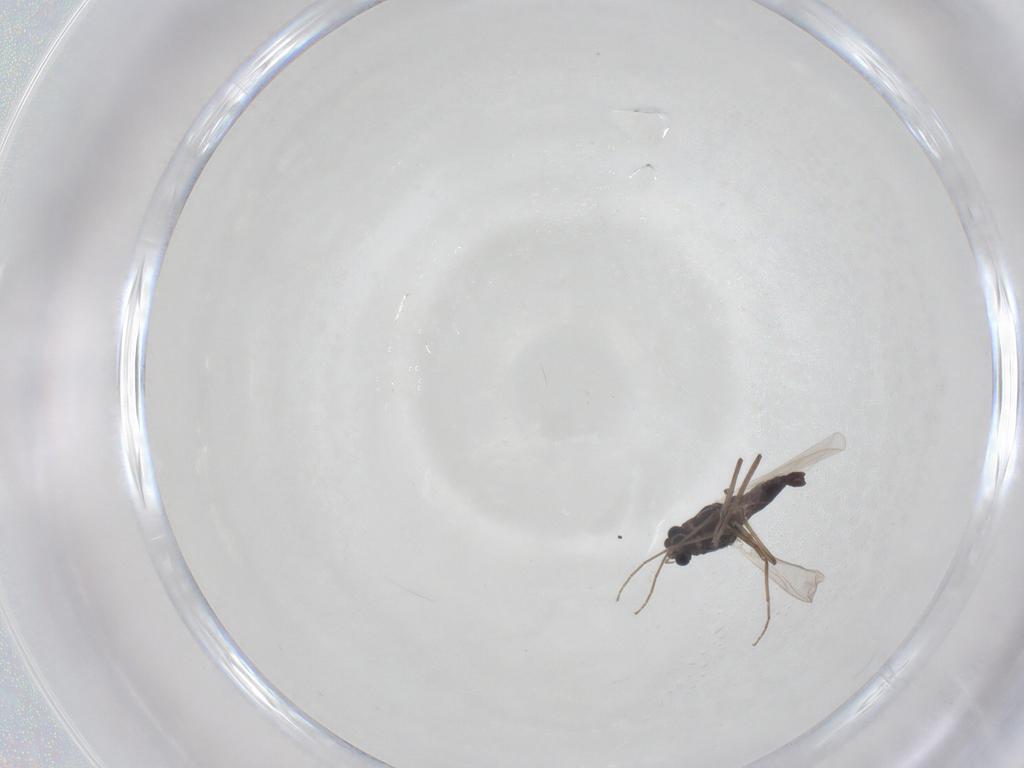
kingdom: Animalia
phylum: Arthropoda
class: Insecta
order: Diptera
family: Chironomidae
